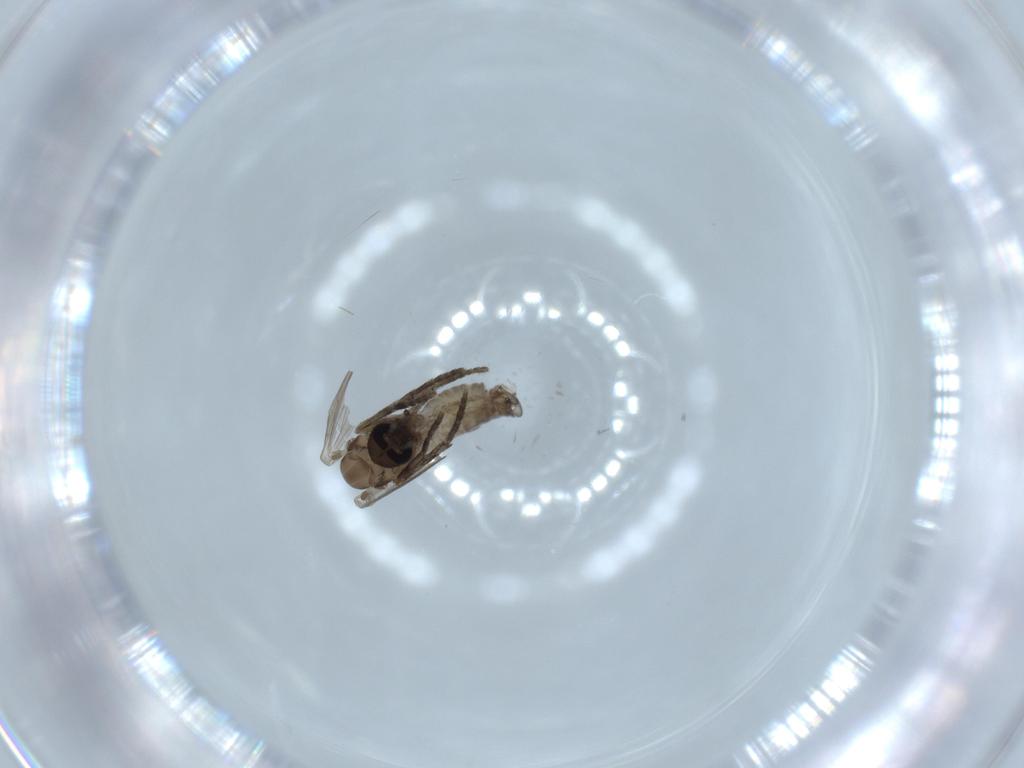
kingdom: Animalia
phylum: Arthropoda
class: Insecta
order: Diptera
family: Psychodidae
